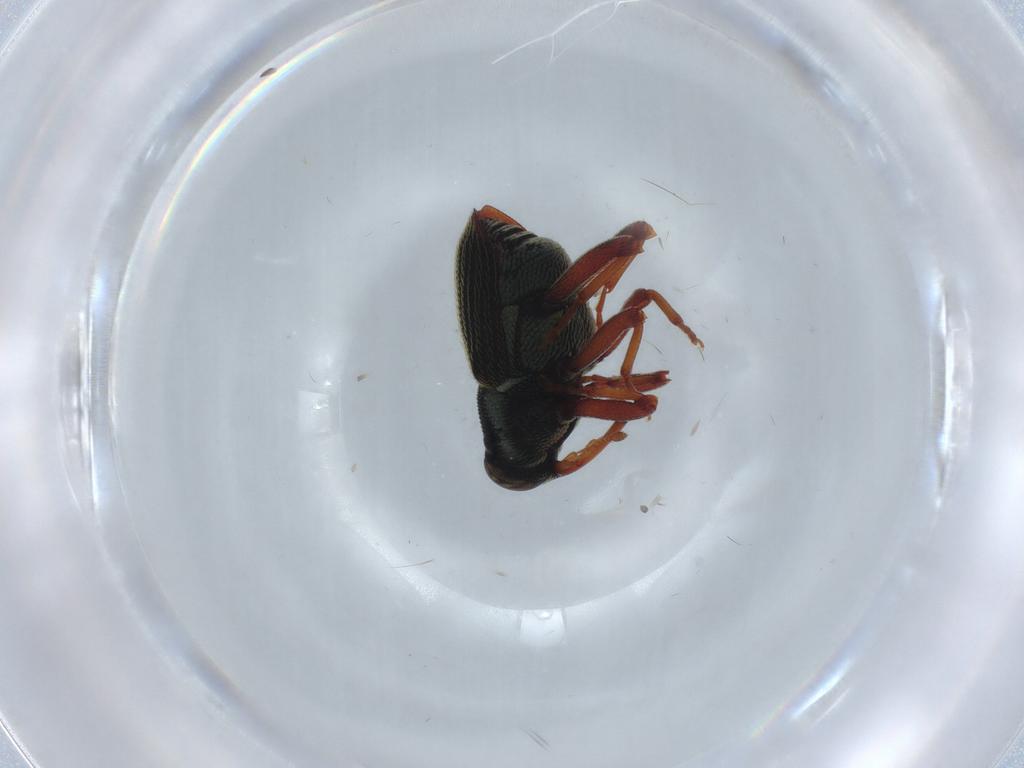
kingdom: Animalia
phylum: Arthropoda
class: Insecta
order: Coleoptera
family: Curculionidae
